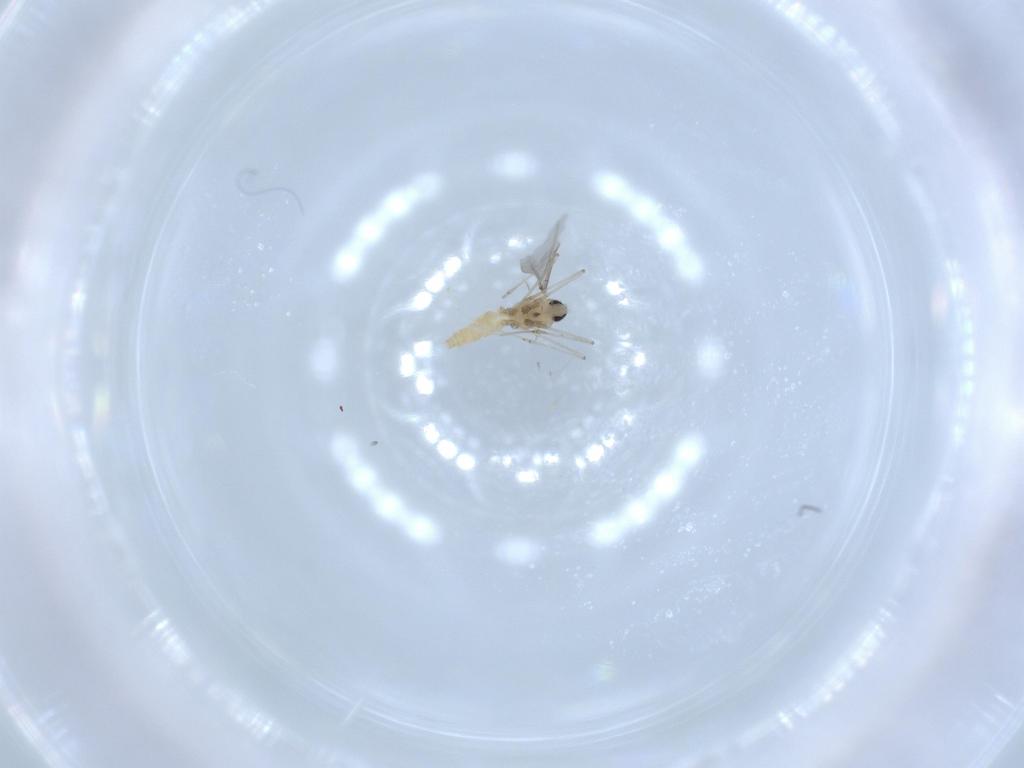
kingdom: Animalia
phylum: Arthropoda
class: Insecta
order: Diptera
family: Cecidomyiidae
